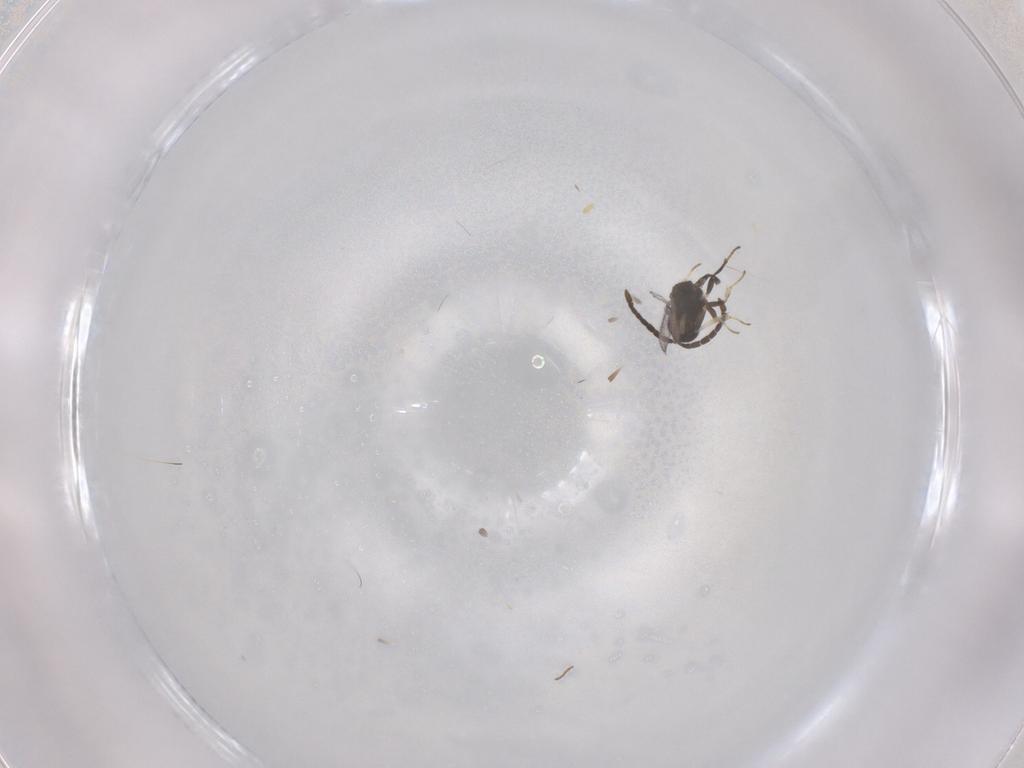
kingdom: Animalia
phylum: Arthropoda
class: Insecta
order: Hymenoptera
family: Eupelmidae
